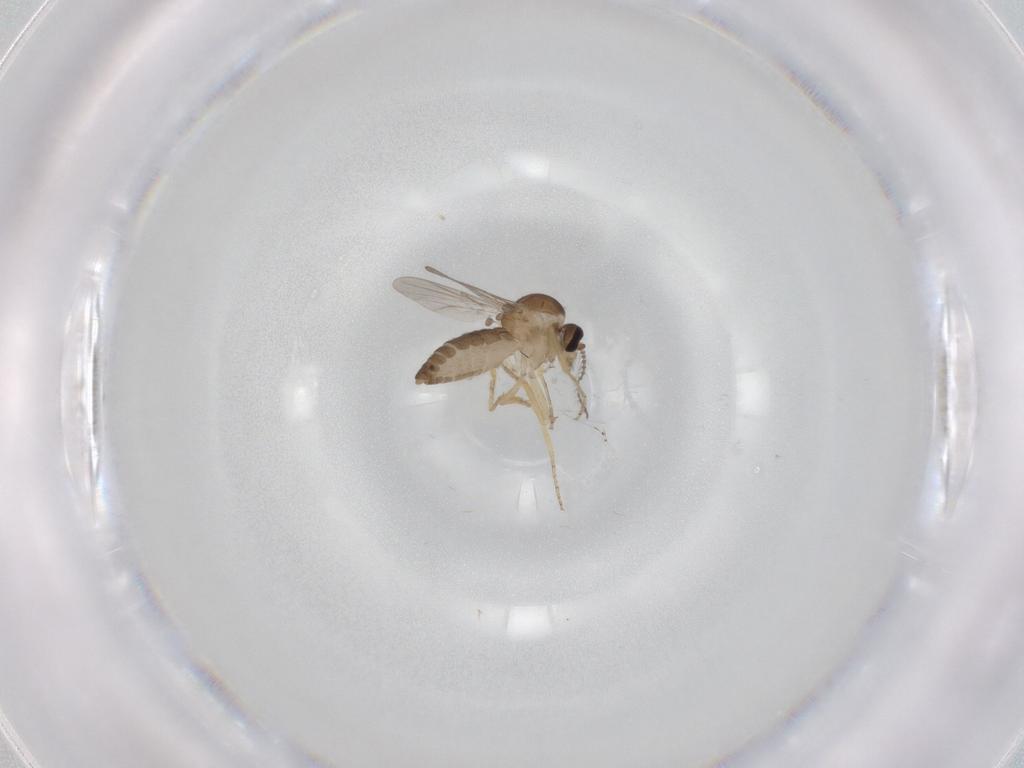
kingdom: Animalia
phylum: Arthropoda
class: Insecta
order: Diptera
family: Ceratopogonidae
